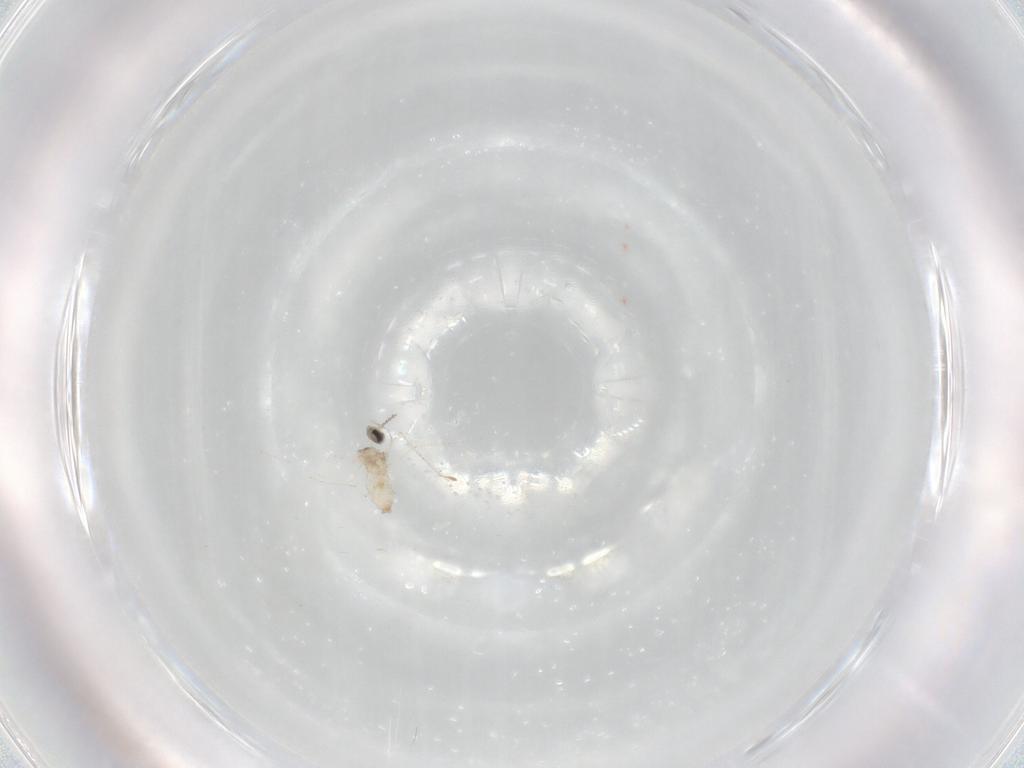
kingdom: Animalia
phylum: Arthropoda
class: Insecta
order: Diptera
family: Cecidomyiidae
